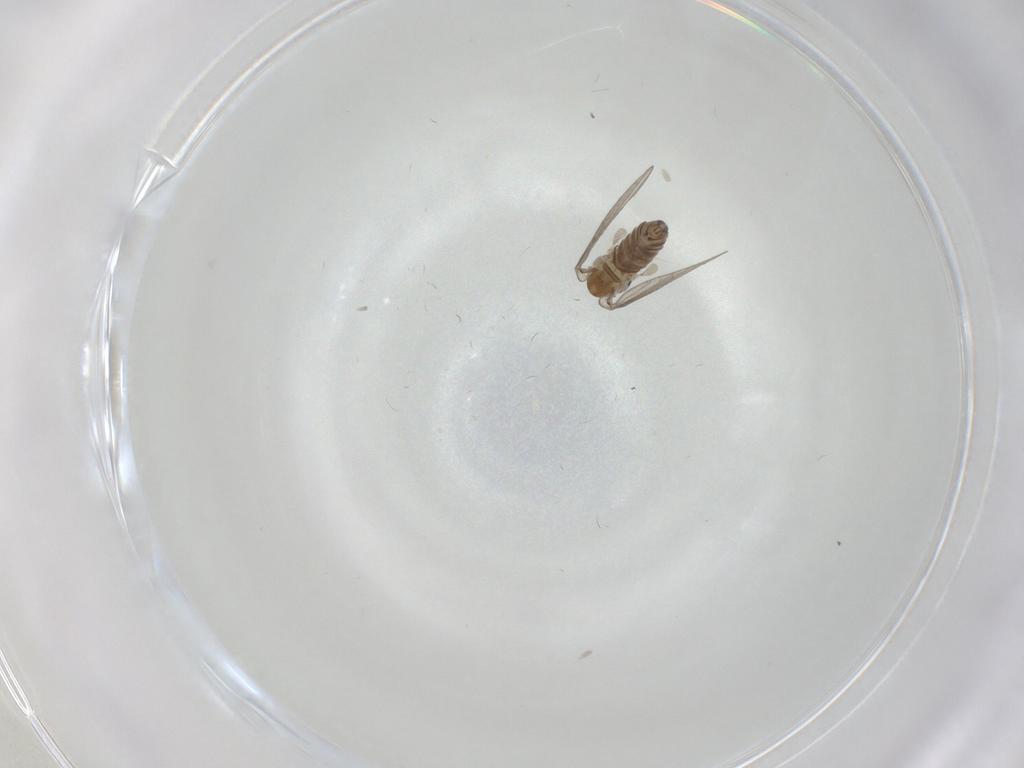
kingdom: Animalia
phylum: Arthropoda
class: Insecta
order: Diptera
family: Psychodidae
